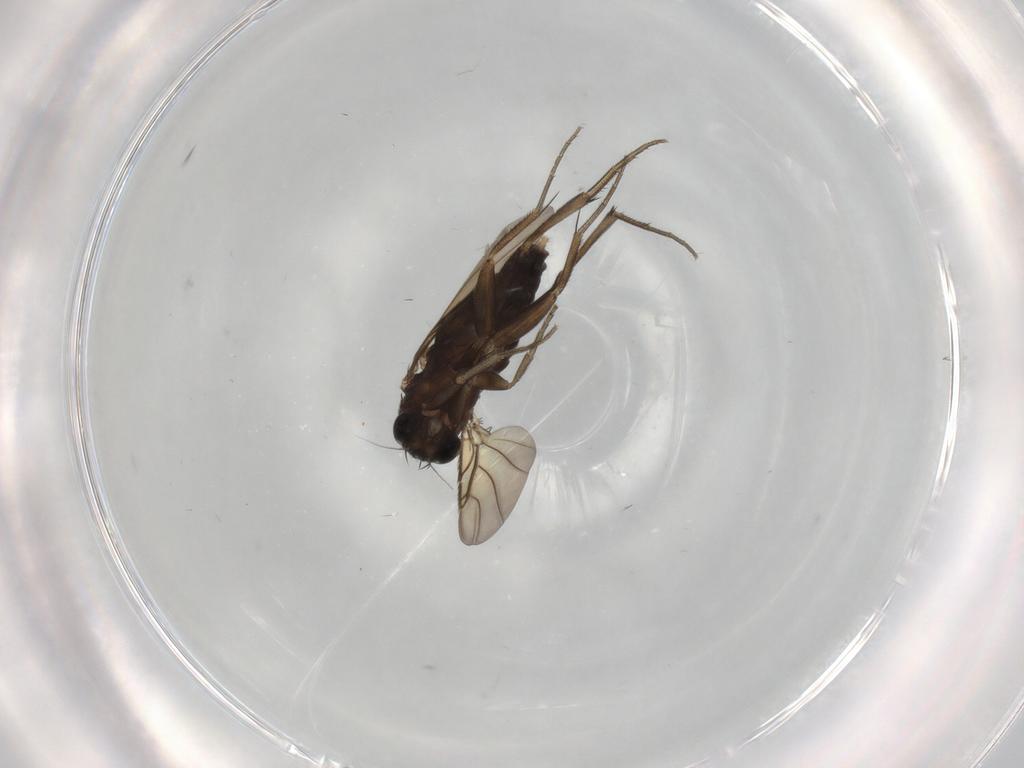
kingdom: Animalia
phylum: Arthropoda
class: Insecta
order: Diptera
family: Phoridae
